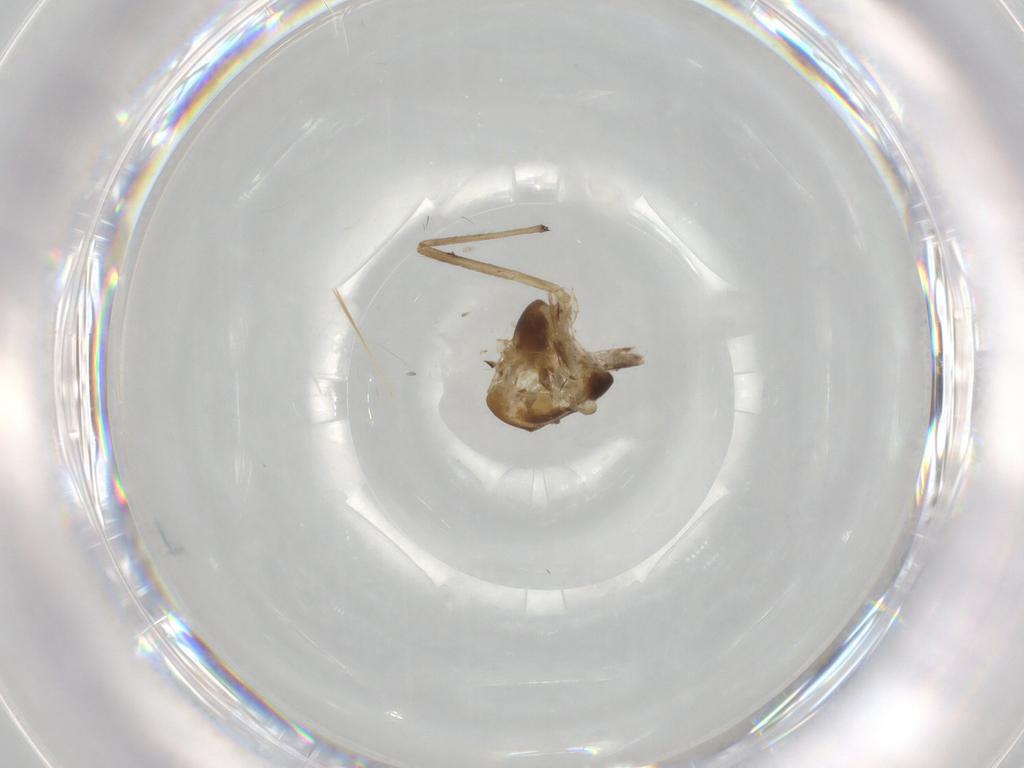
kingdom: Animalia
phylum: Arthropoda
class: Insecta
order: Diptera
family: Chironomidae
